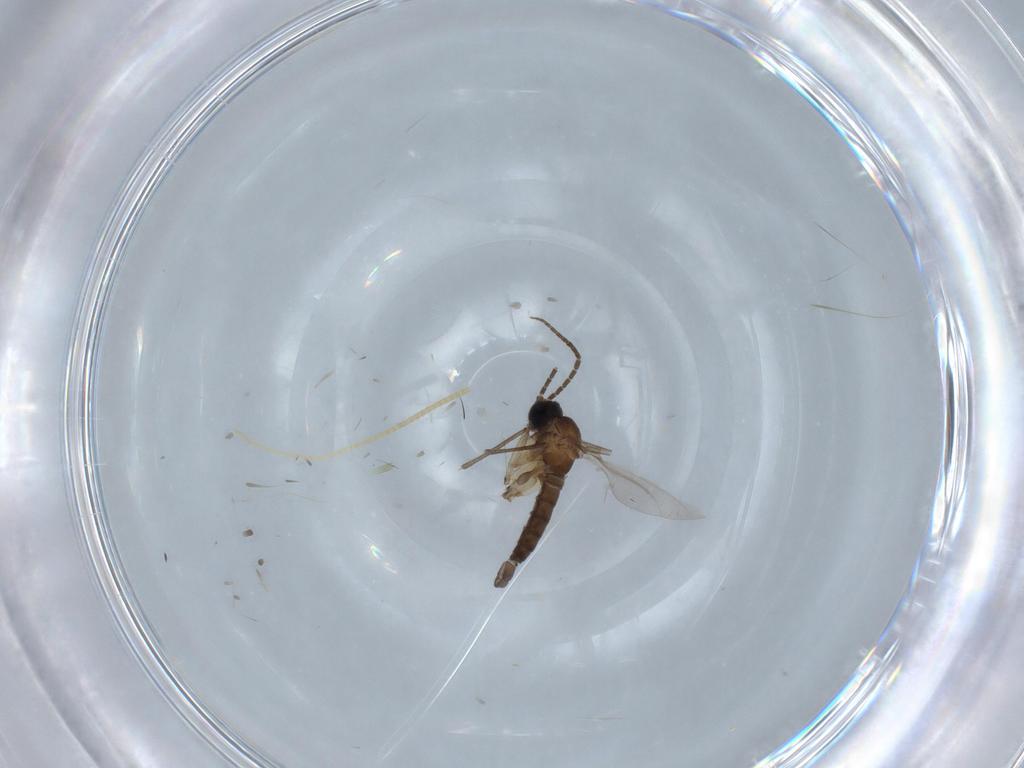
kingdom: Animalia
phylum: Arthropoda
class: Insecta
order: Diptera
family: Sciaridae
